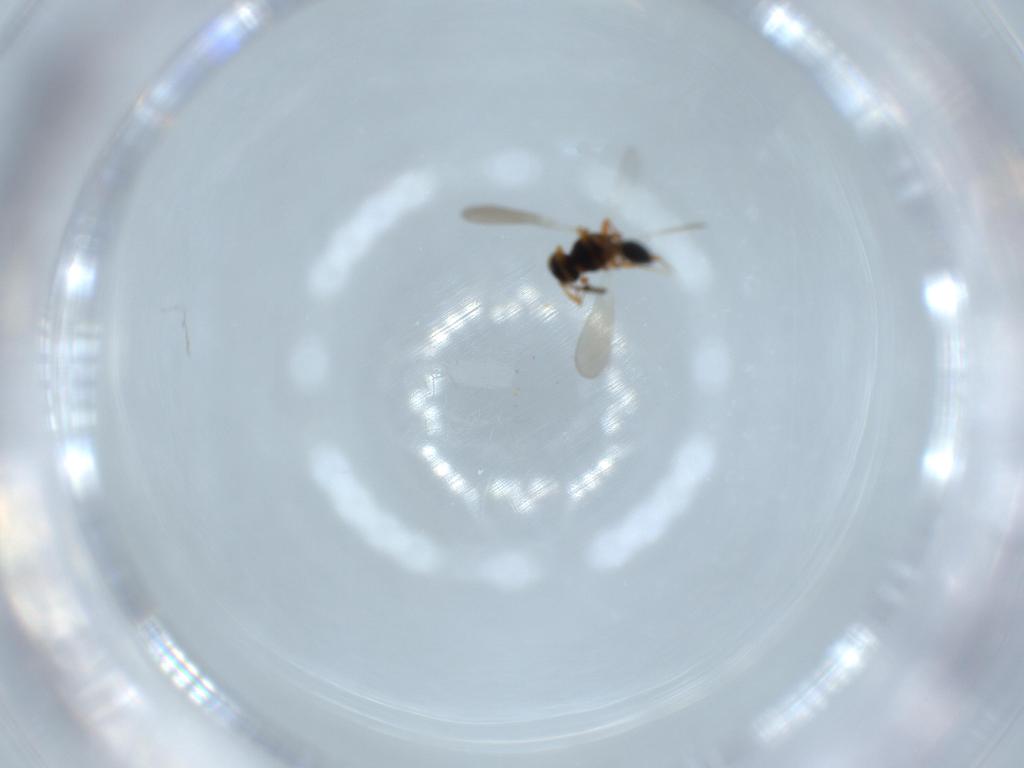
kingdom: Animalia
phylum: Arthropoda
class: Insecta
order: Hymenoptera
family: Platygastridae
